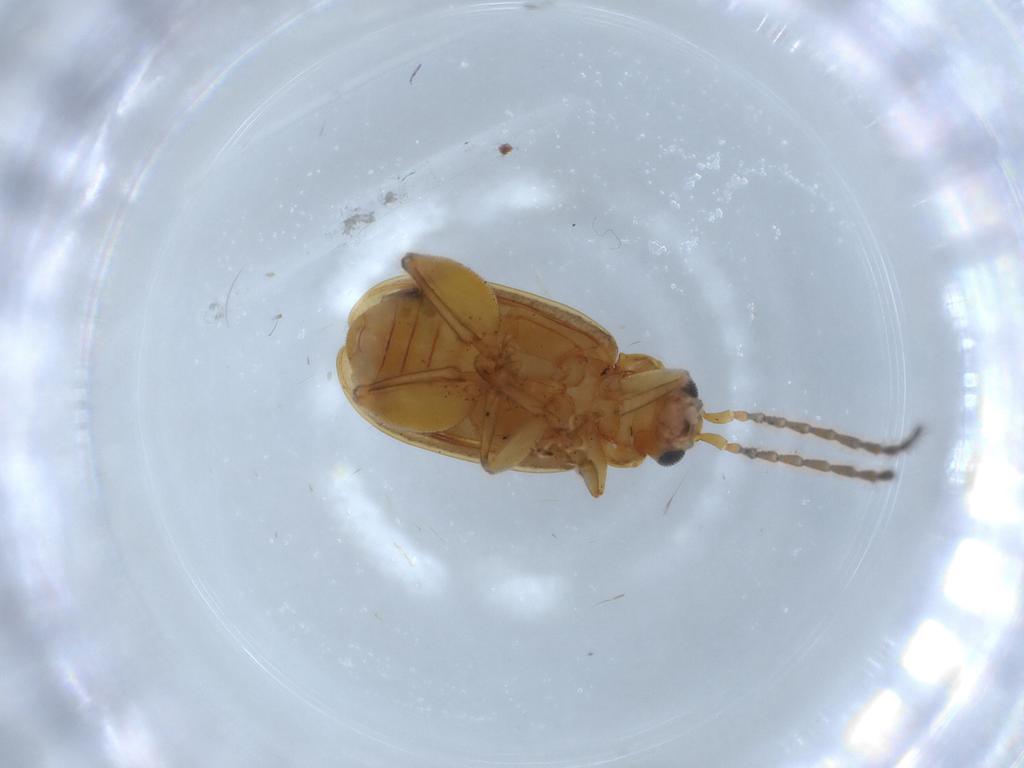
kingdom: Animalia
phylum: Arthropoda
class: Insecta
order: Coleoptera
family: Chrysomelidae
